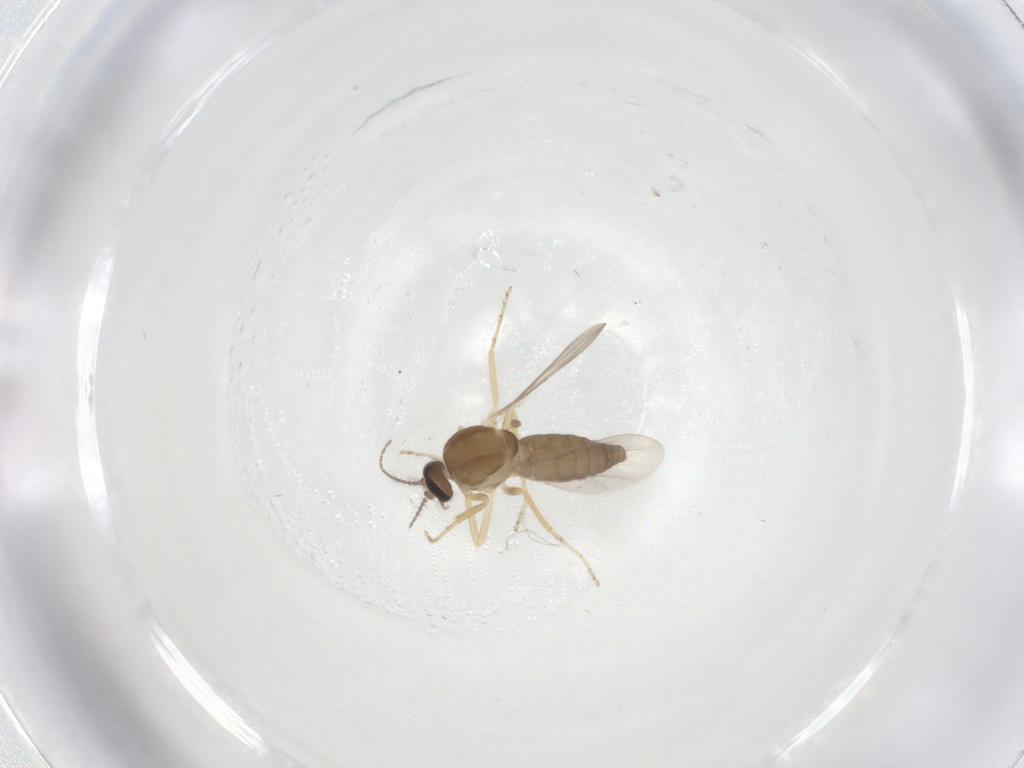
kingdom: Animalia
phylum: Arthropoda
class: Insecta
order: Diptera
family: Ceratopogonidae
